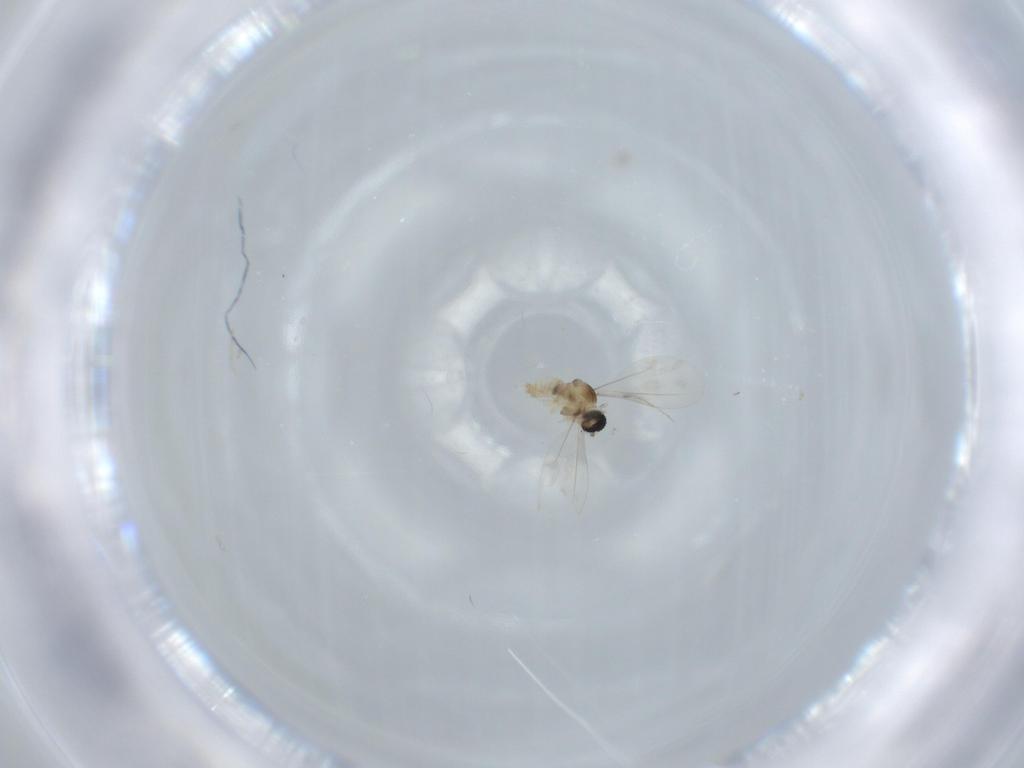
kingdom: Animalia
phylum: Arthropoda
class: Insecta
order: Diptera
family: Cecidomyiidae
